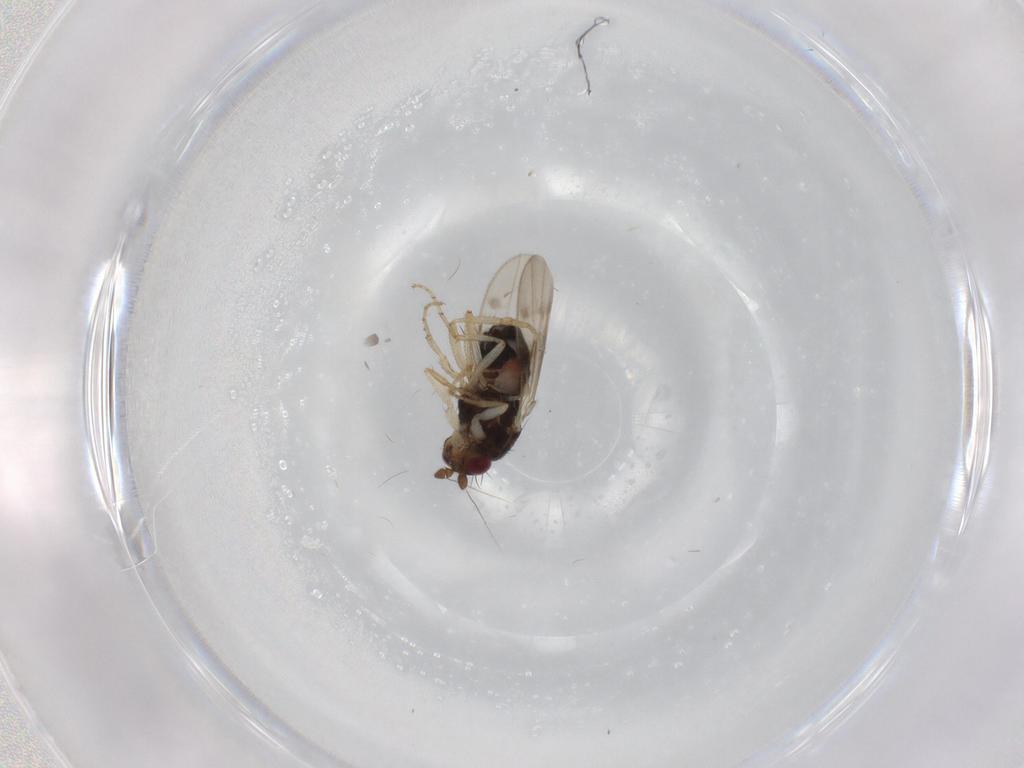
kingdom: Animalia
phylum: Arthropoda
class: Insecta
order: Diptera
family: Sphaeroceridae
